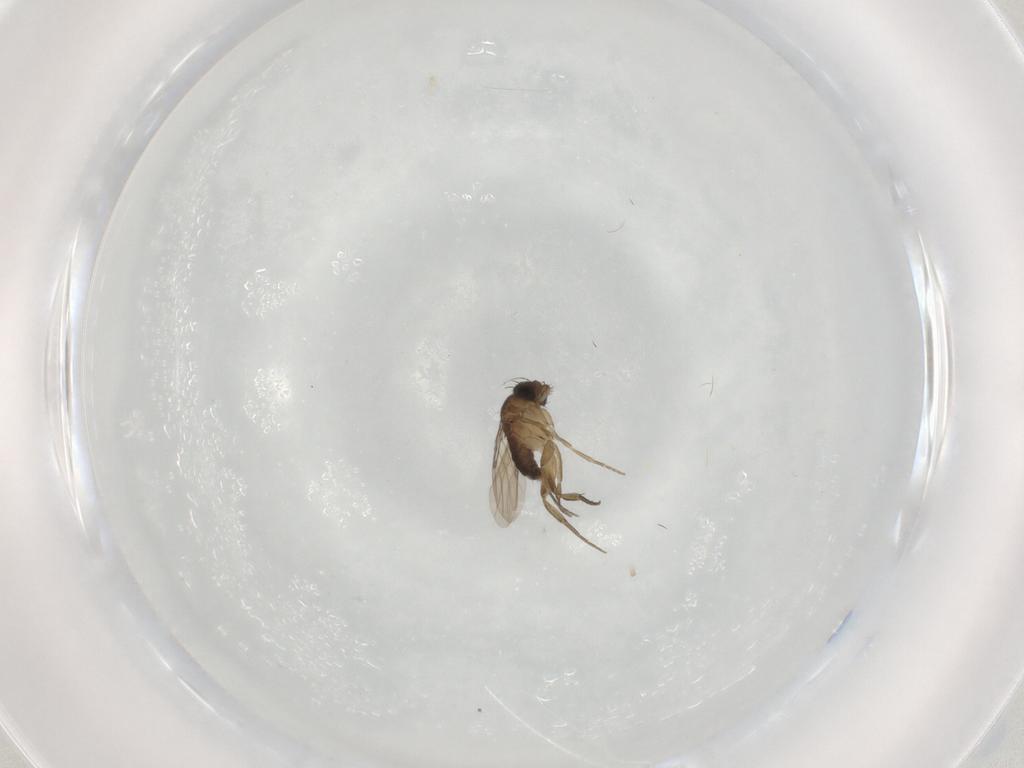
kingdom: Animalia
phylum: Arthropoda
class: Insecta
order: Diptera
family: Phoridae
